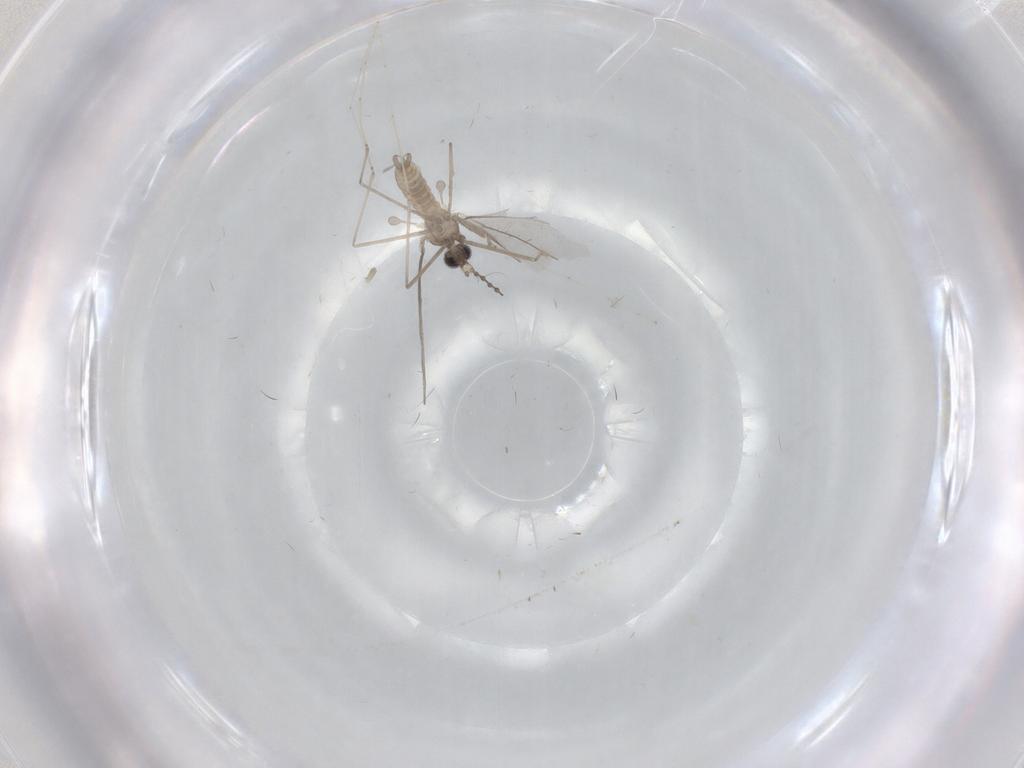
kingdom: Animalia
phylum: Arthropoda
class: Insecta
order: Diptera
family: Cecidomyiidae
